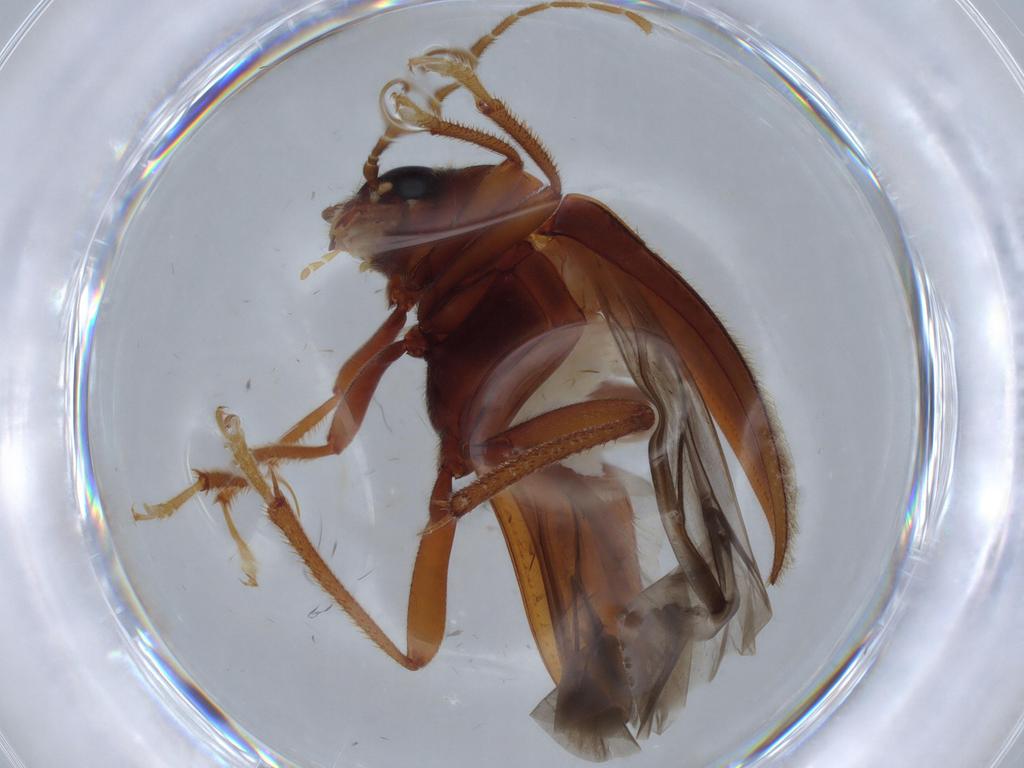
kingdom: Animalia
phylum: Arthropoda
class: Insecta
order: Coleoptera
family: Ptilodactylidae
